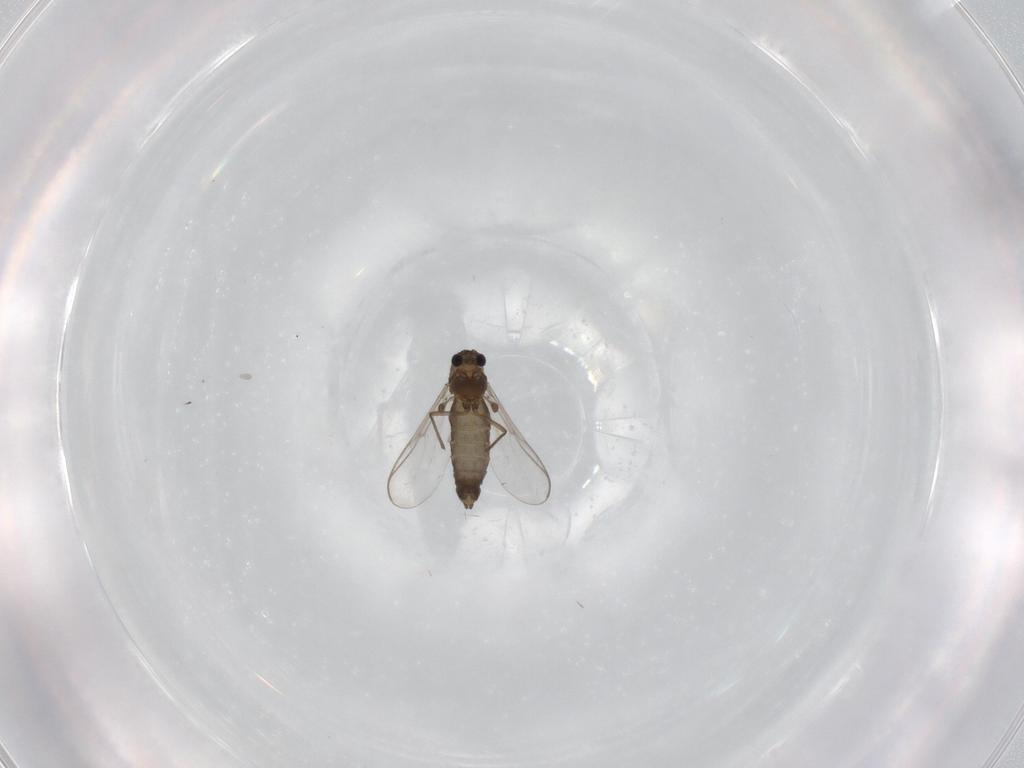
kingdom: Animalia
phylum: Arthropoda
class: Insecta
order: Diptera
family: Chironomidae
